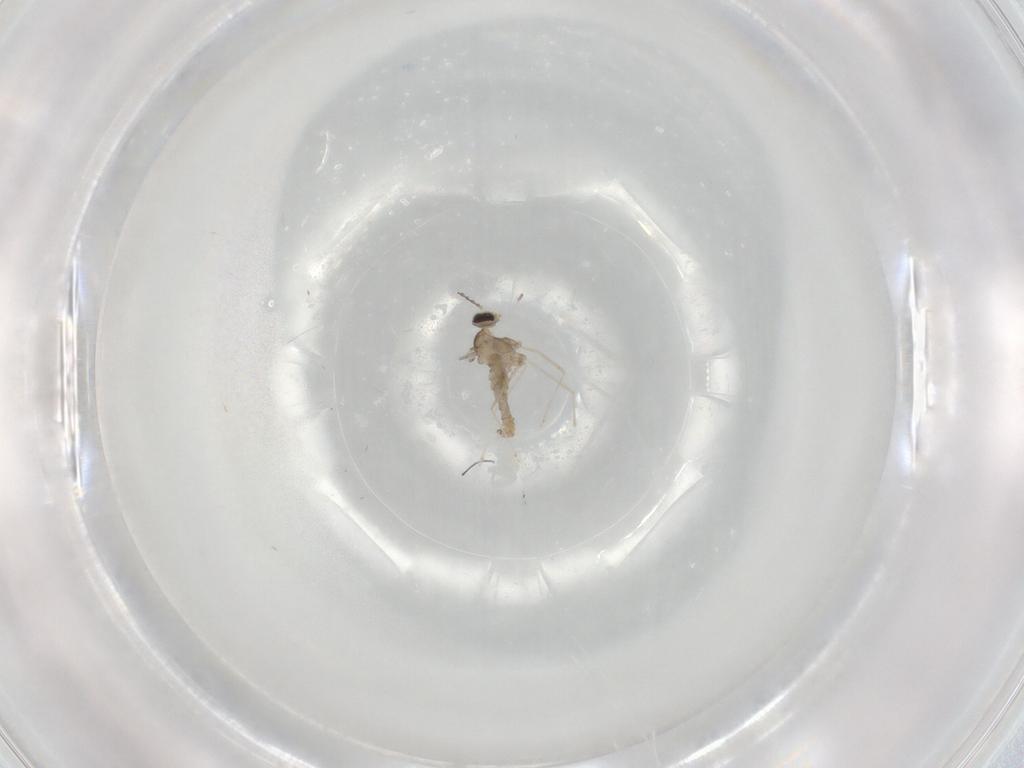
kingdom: Animalia
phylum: Arthropoda
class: Insecta
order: Diptera
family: Cecidomyiidae
